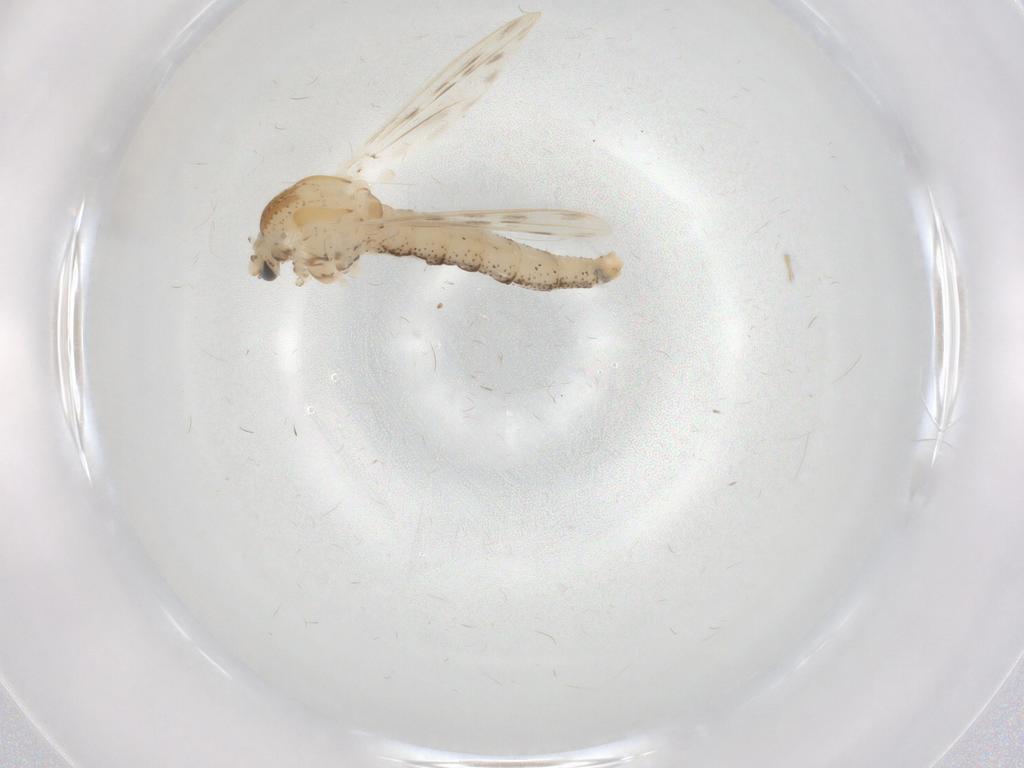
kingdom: Animalia
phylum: Arthropoda
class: Insecta
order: Diptera
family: Chaoboridae
